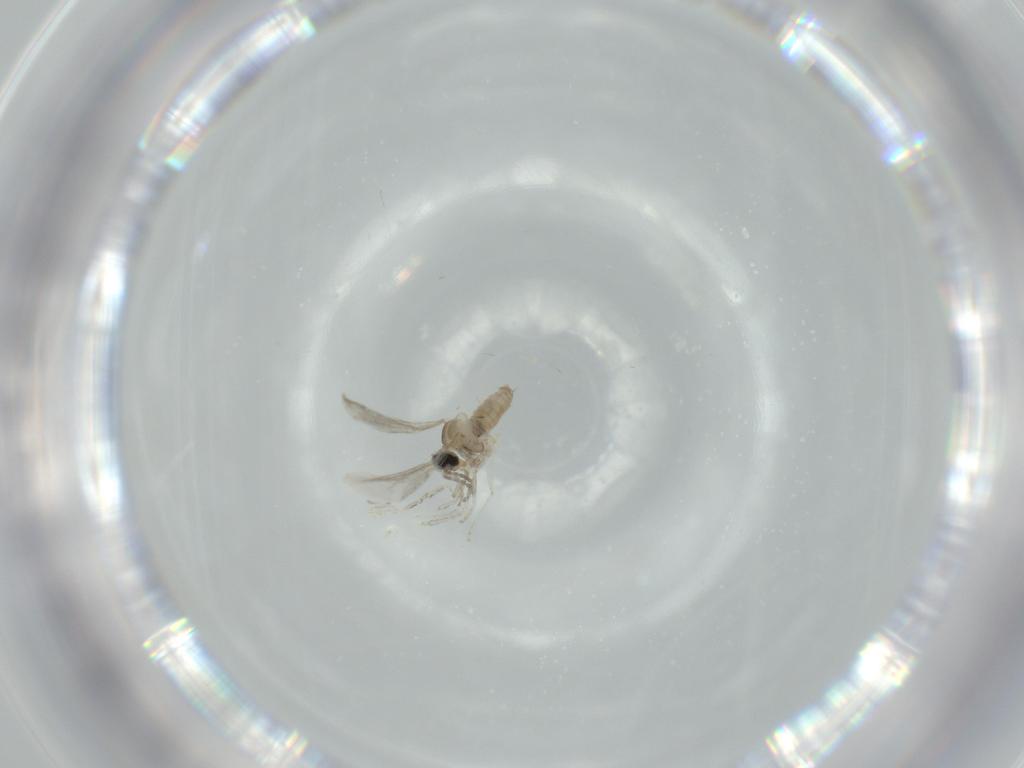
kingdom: Animalia
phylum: Arthropoda
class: Insecta
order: Diptera
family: Cecidomyiidae
